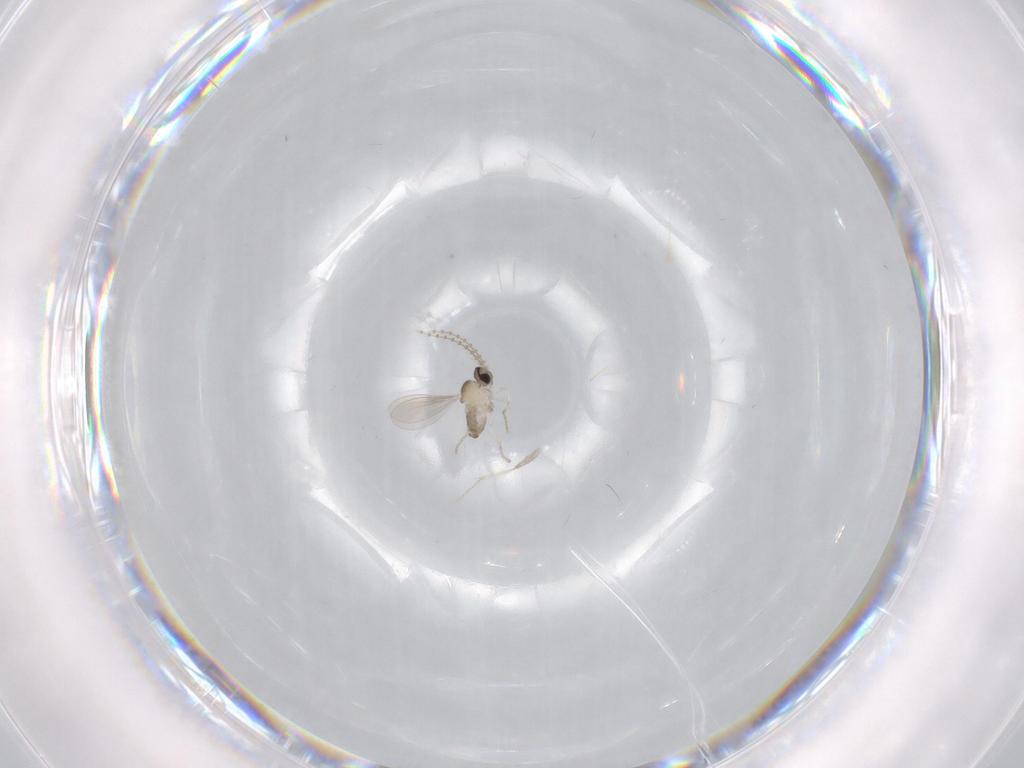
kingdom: Animalia
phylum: Arthropoda
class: Insecta
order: Diptera
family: Cecidomyiidae
